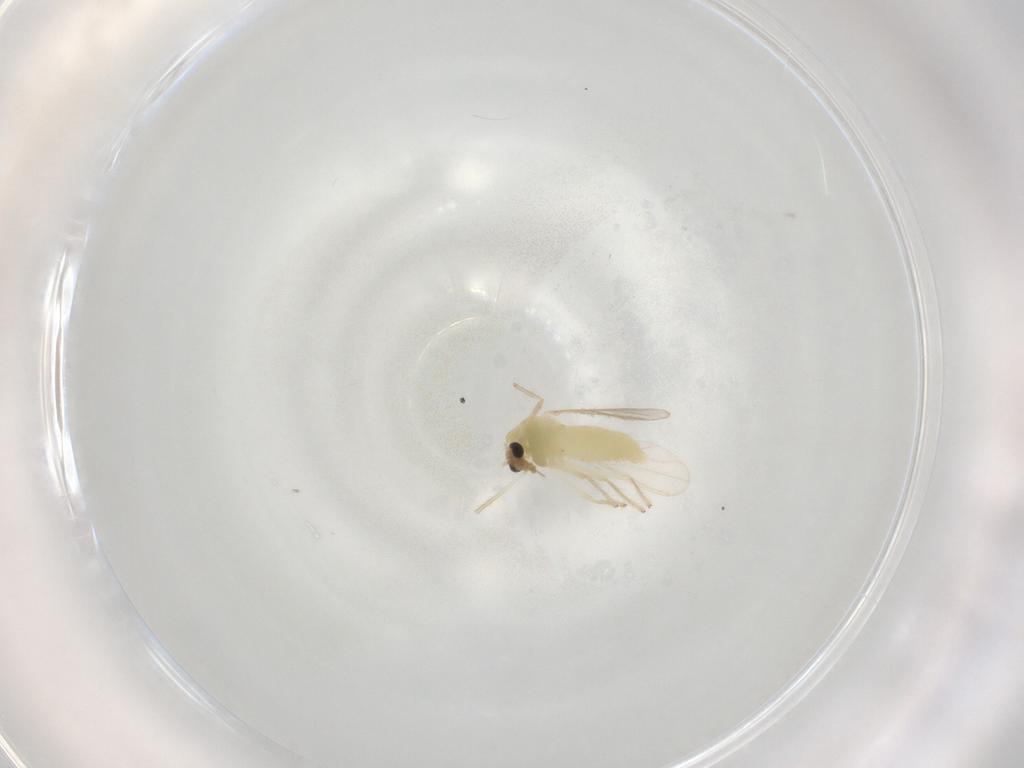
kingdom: Animalia
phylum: Arthropoda
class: Insecta
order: Diptera
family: Chironomidae
